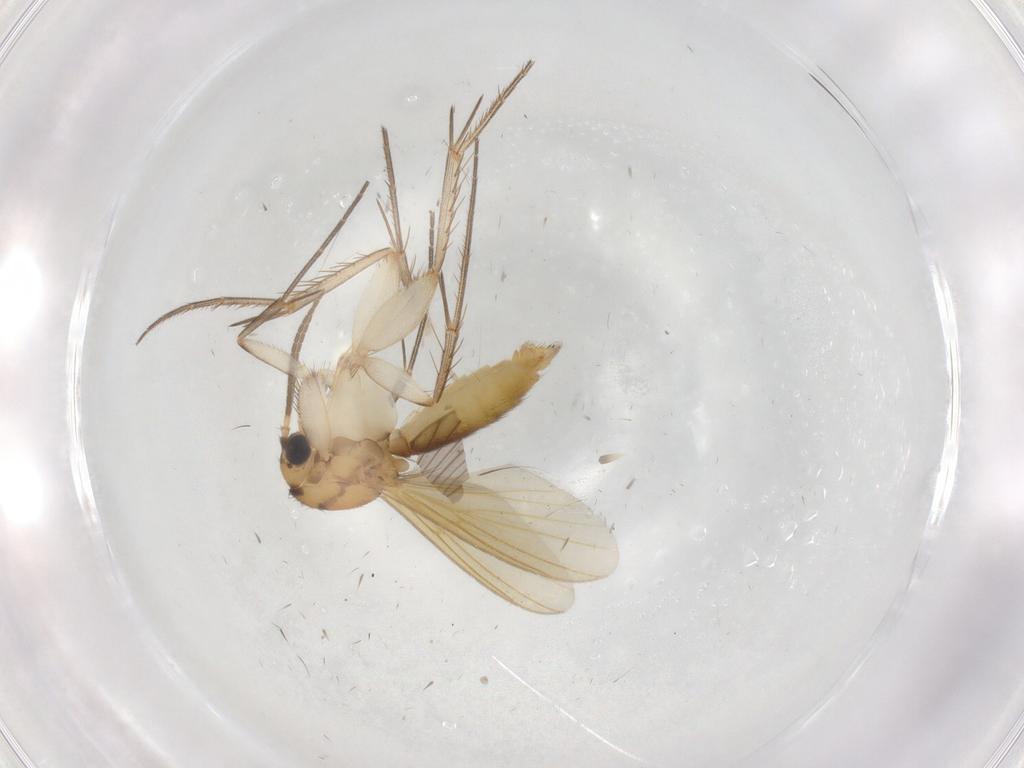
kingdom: Animalia
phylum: Arthropoda
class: Insecta
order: Diptera
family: Mycetophilidae
